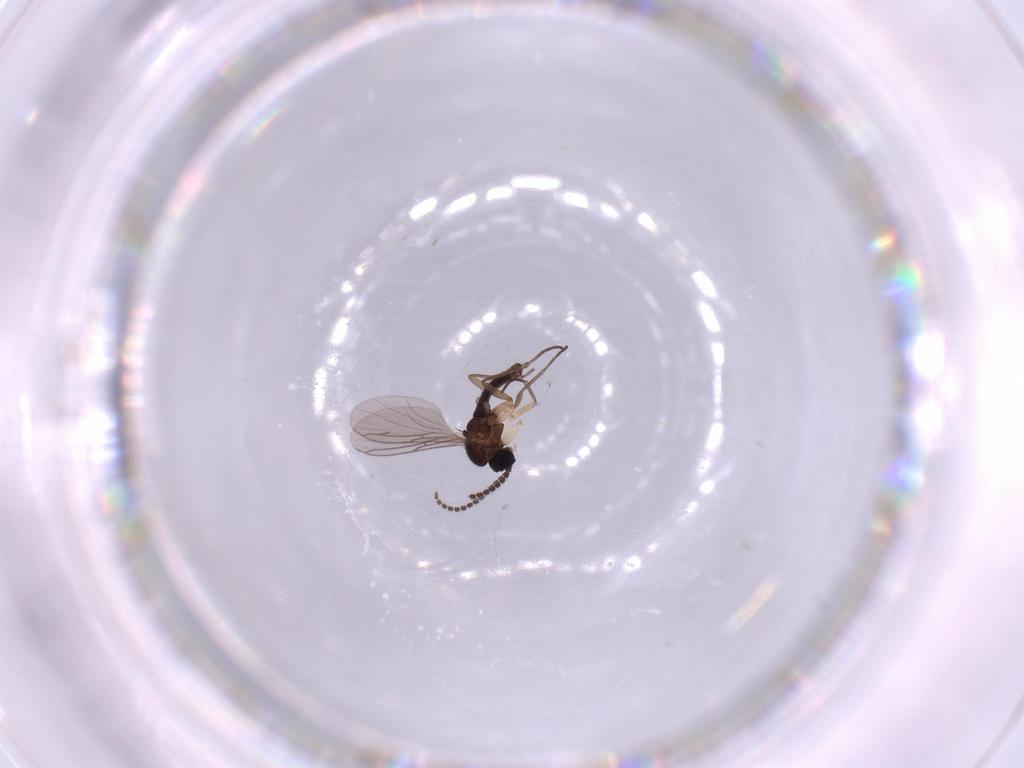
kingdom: Animalia
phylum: Arthropoda
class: Insecta
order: Diptera
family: Sciaridae
